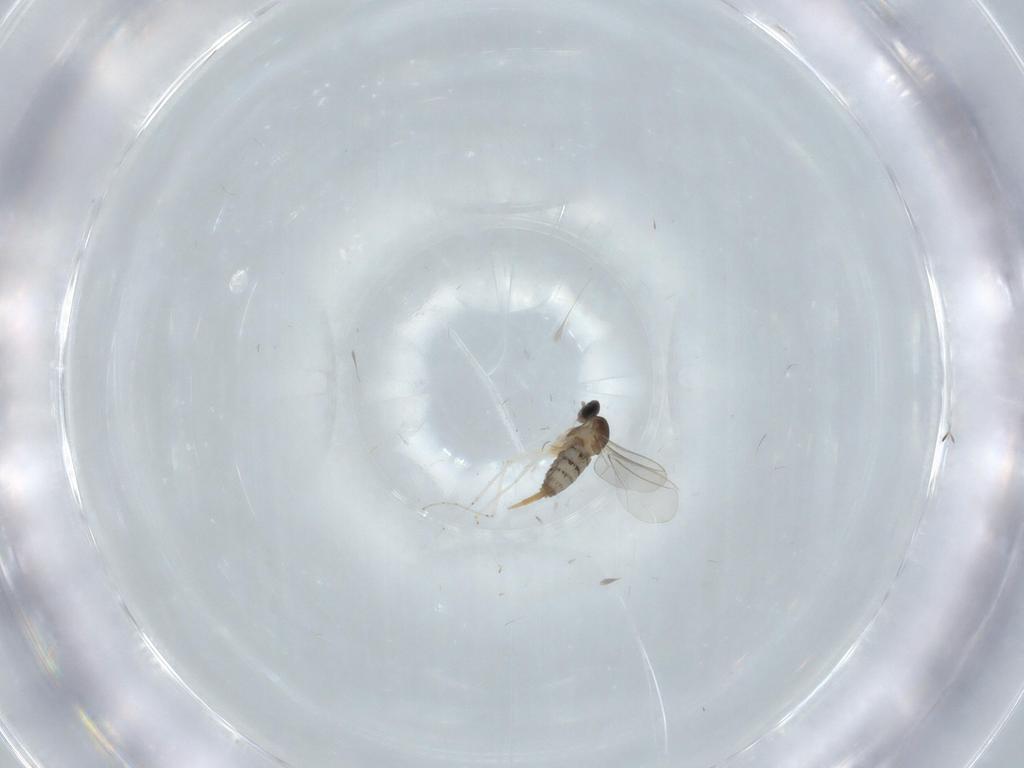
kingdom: Animalia
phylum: Arthropoda
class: Insecta
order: Diptera
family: Cecidomyiidae
